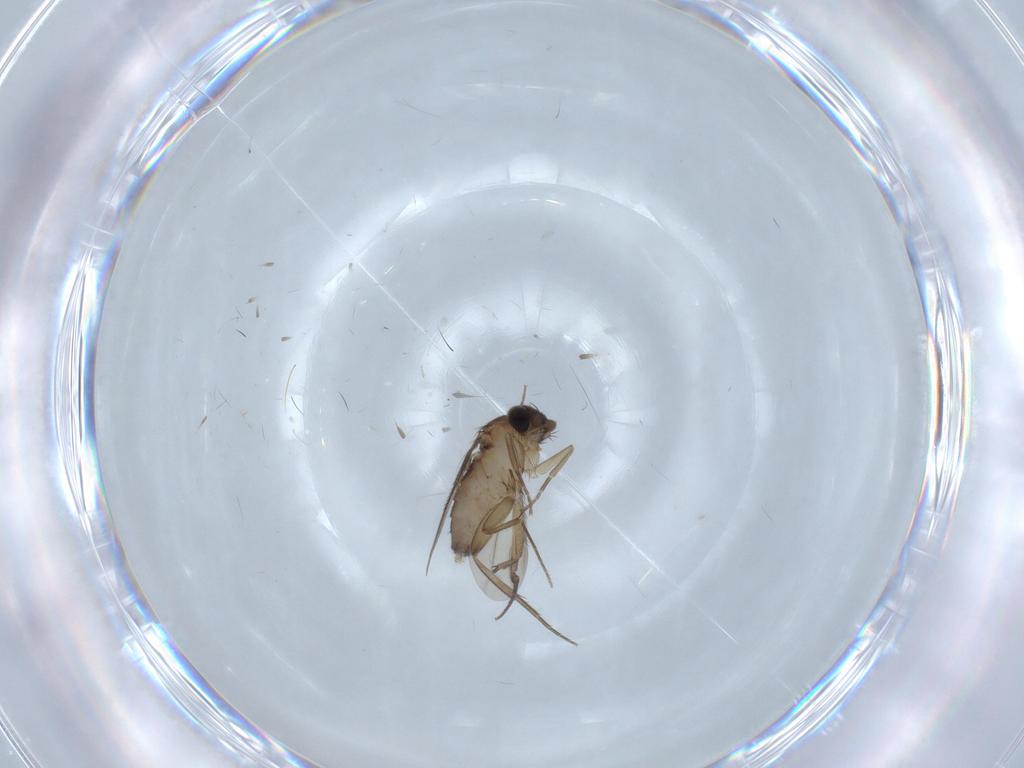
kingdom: Animalia
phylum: Arthropoda
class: Insecta
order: Diptera
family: Phoridae
